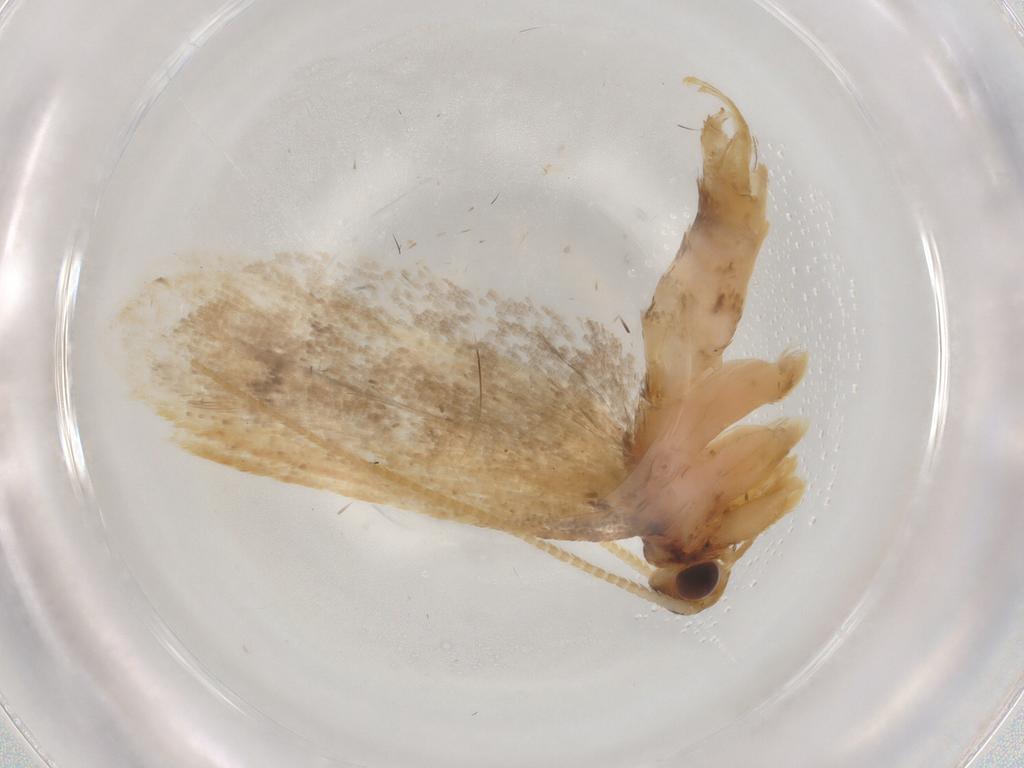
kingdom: Animalia
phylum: Arthropoda
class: Insecta
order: Lepidoptera
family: Lecithoceridae
